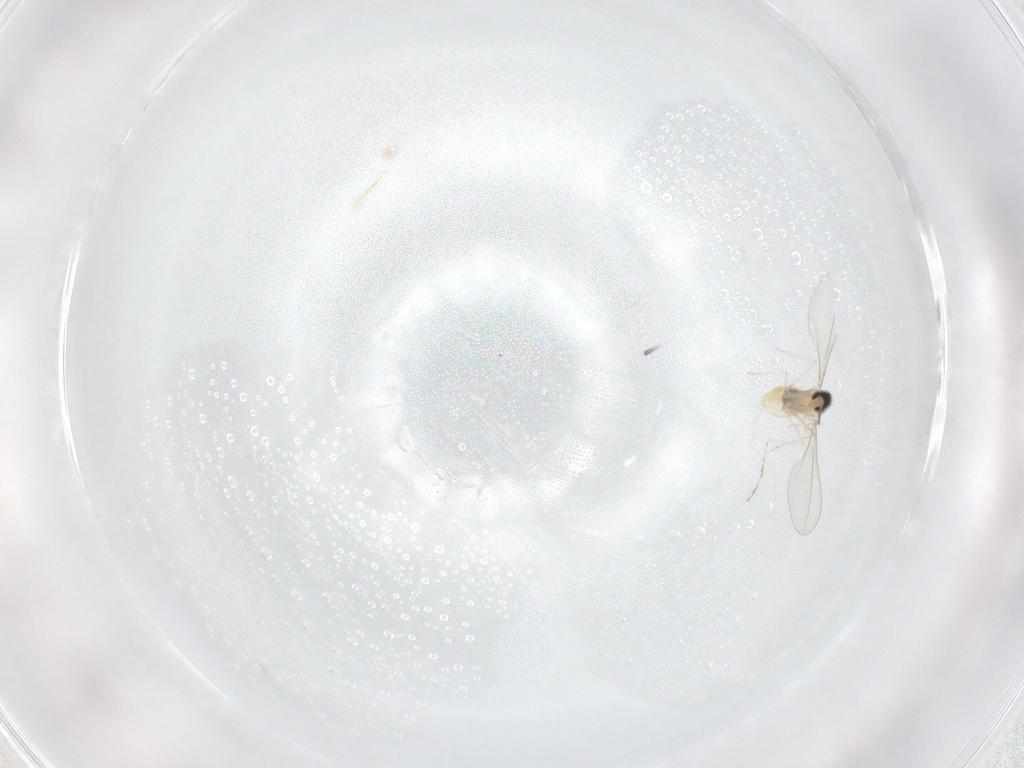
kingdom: Animalia
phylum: Arthropoda
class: Insecta
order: Diptera
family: Cecidomyiidae
